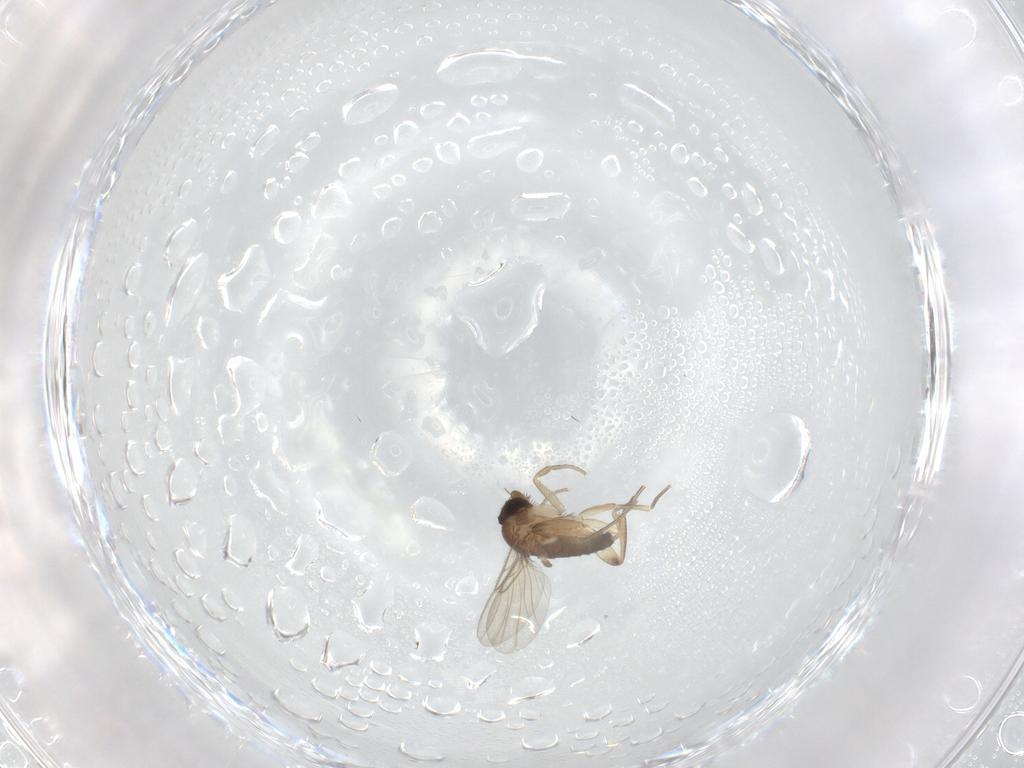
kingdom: Animalia
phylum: Arthropoda
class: Insecta
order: Diptera
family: Phoridae
